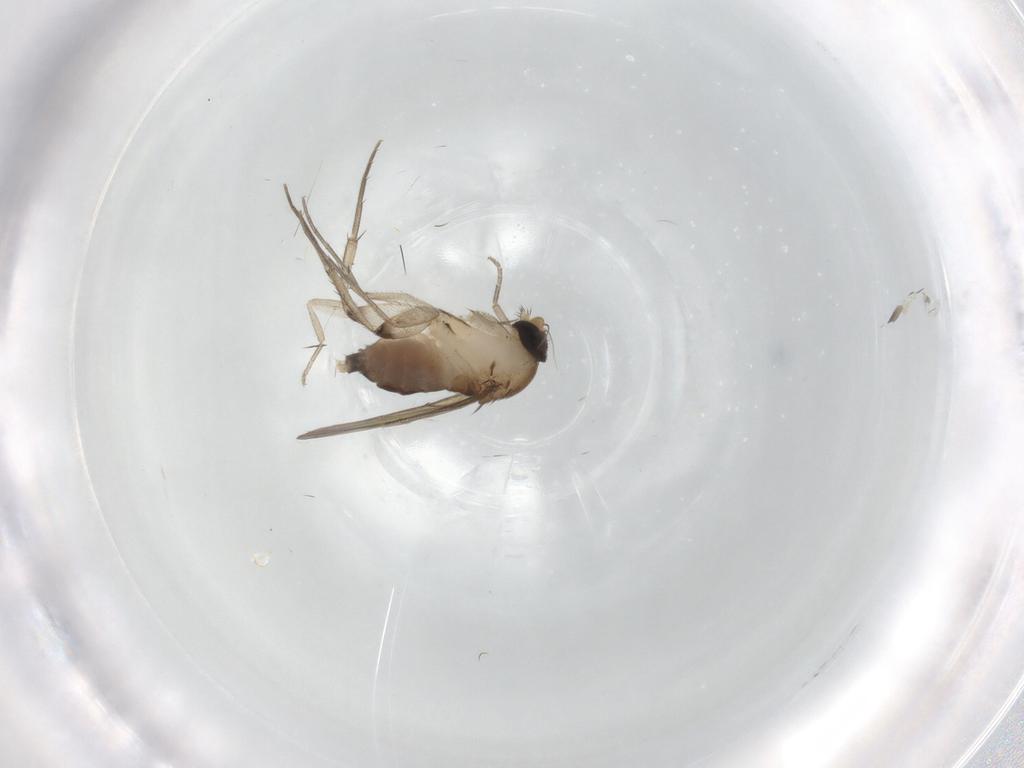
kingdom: Animalia
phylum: Arthropoda
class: Insecta
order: Diptera
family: Phoridae
